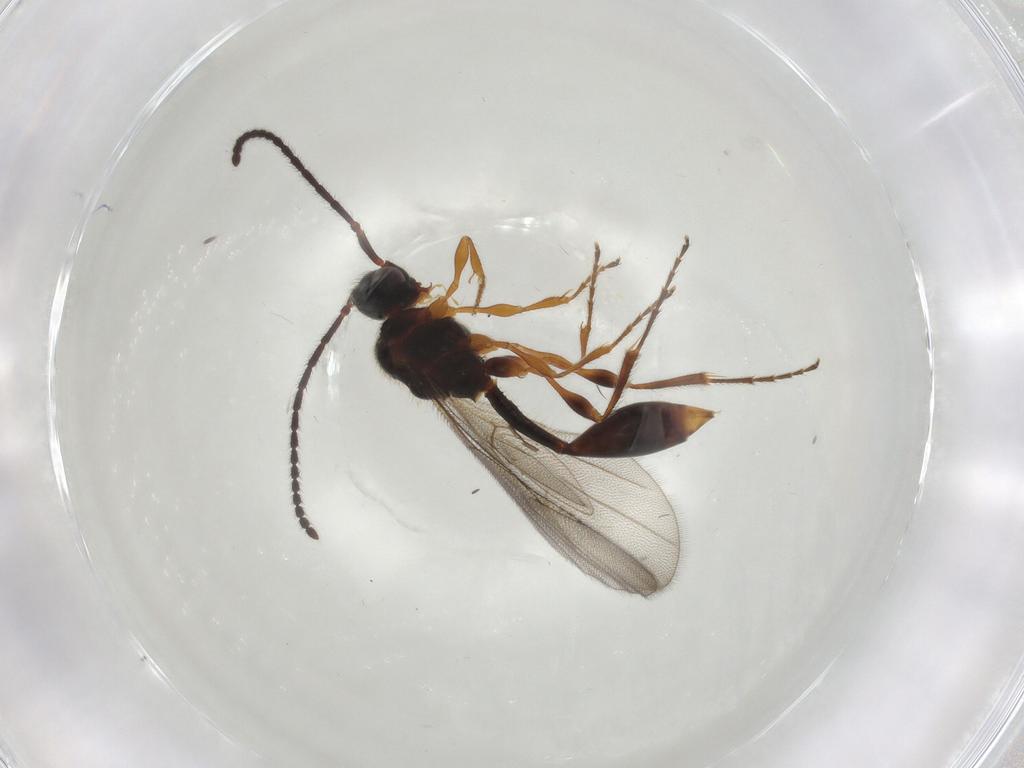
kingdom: Animalia
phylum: Arthropoda
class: Insecta
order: Hymenoptera
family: Diapriidae
